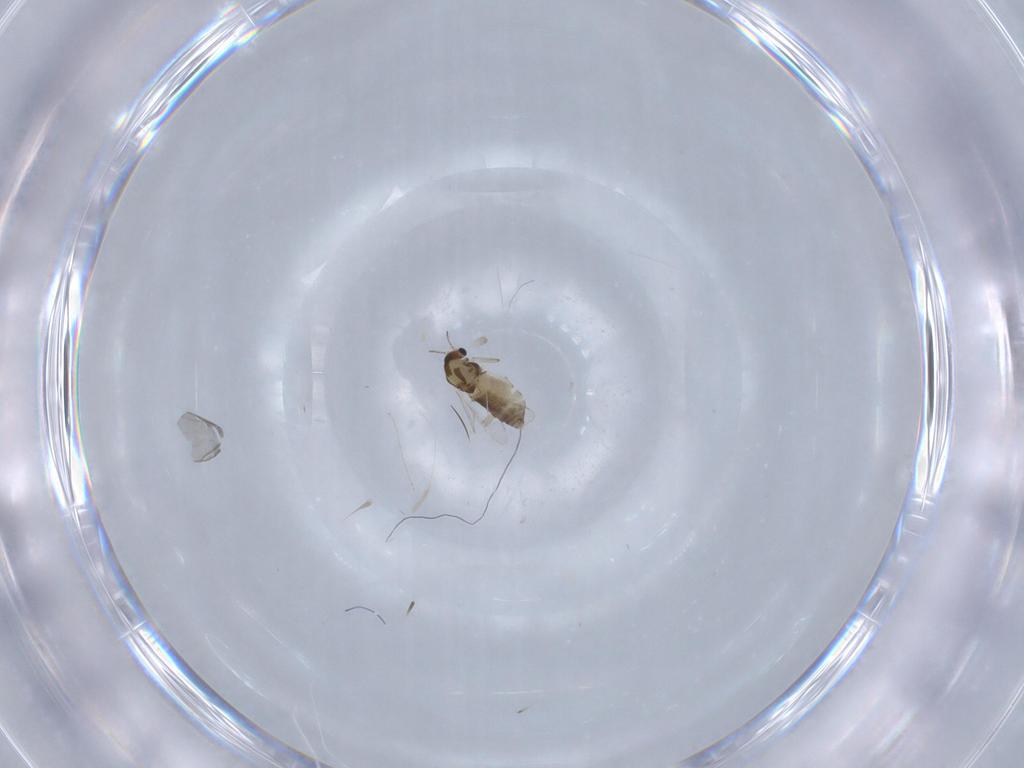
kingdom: Animalia
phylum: Arthropoda
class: Insecta
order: Diptera
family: Chironomidae
